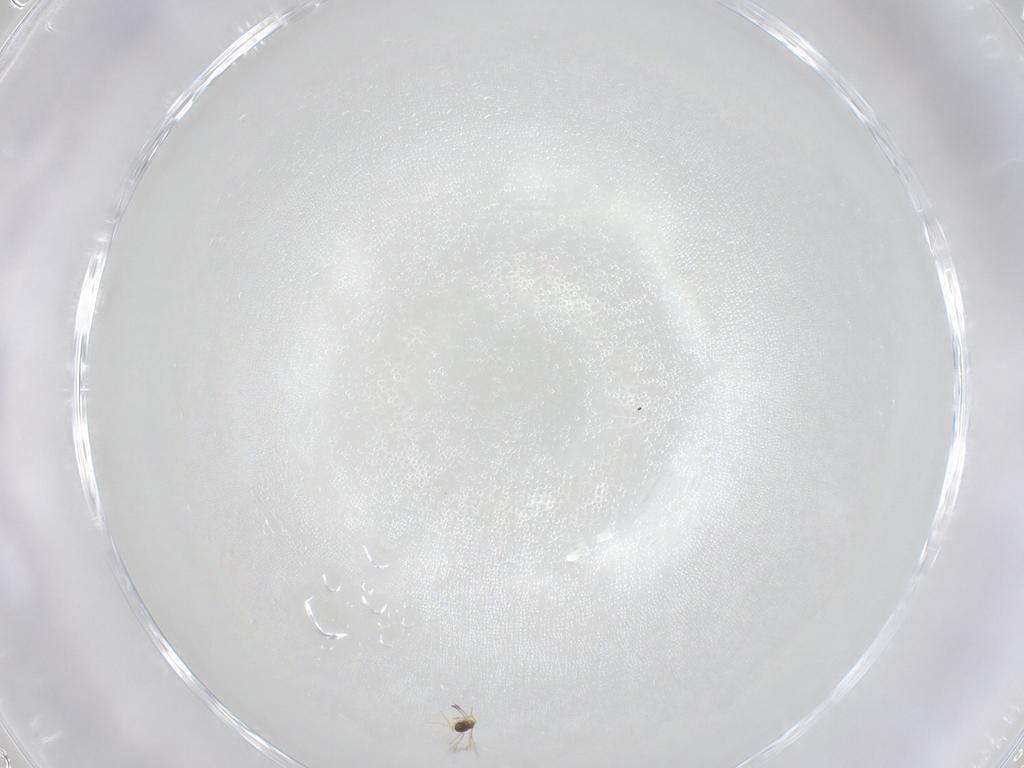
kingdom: Animalia
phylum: Arthropoda
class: Insecta
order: Hymenoptera
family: Mymaridae
